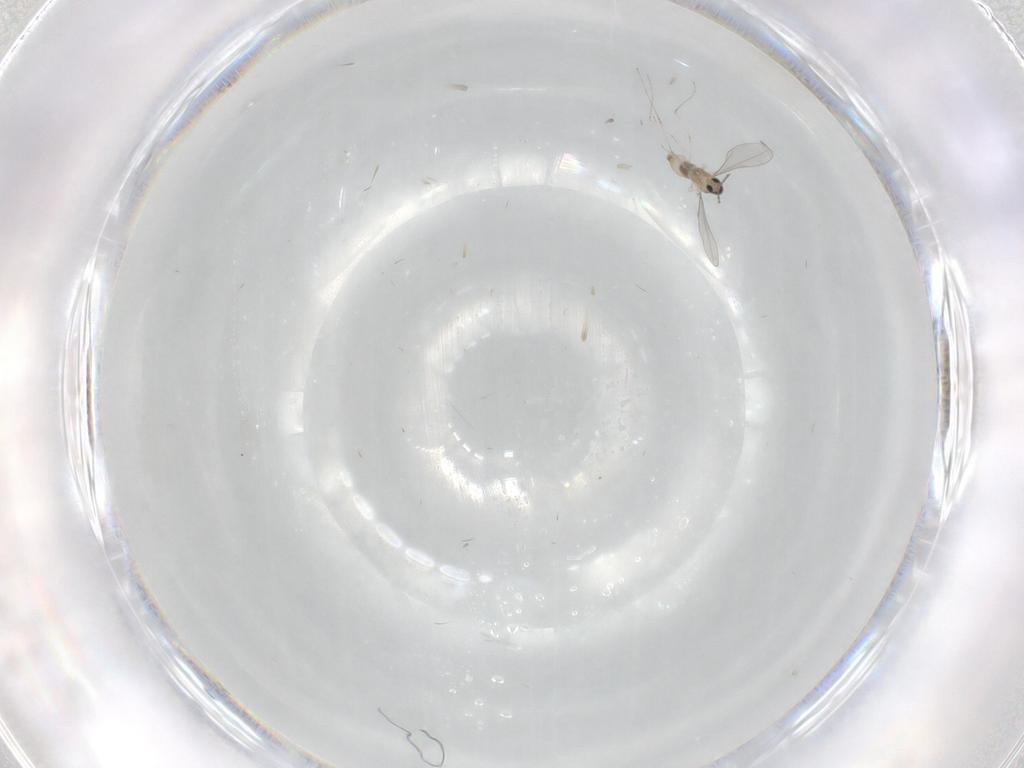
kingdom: Animalia
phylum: Arthropoda
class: Insecta
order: Diptera
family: Cecidomyiidae
